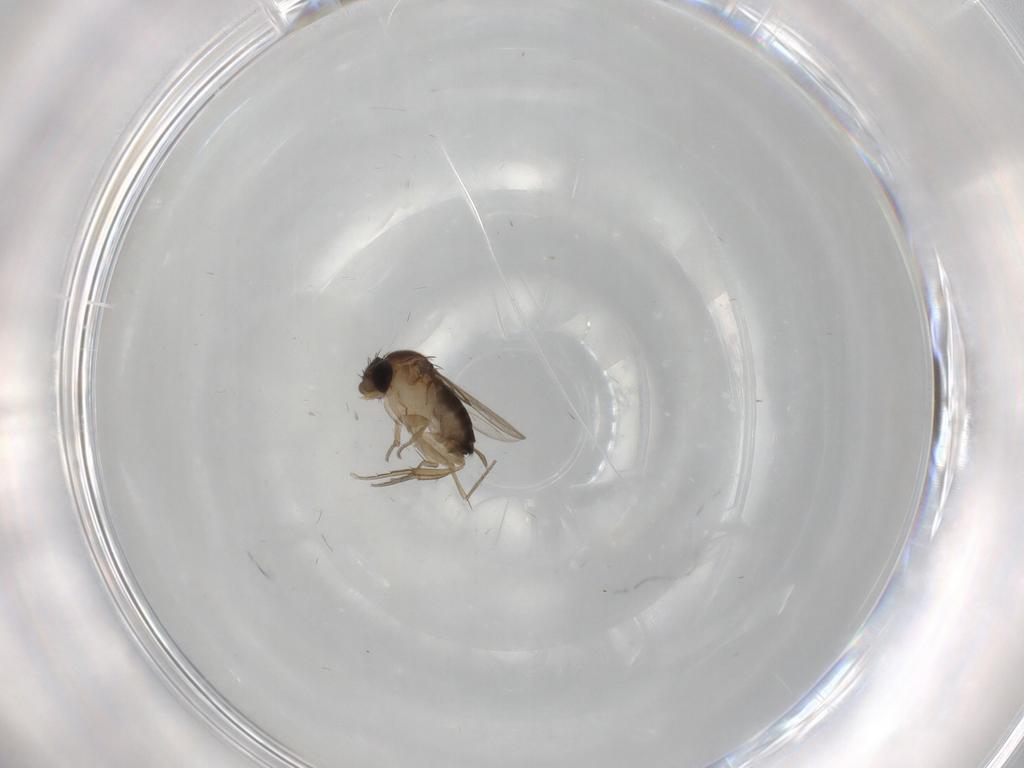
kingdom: Animalia
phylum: Arthropoda
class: Insecta
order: Diptera
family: Phoridae
